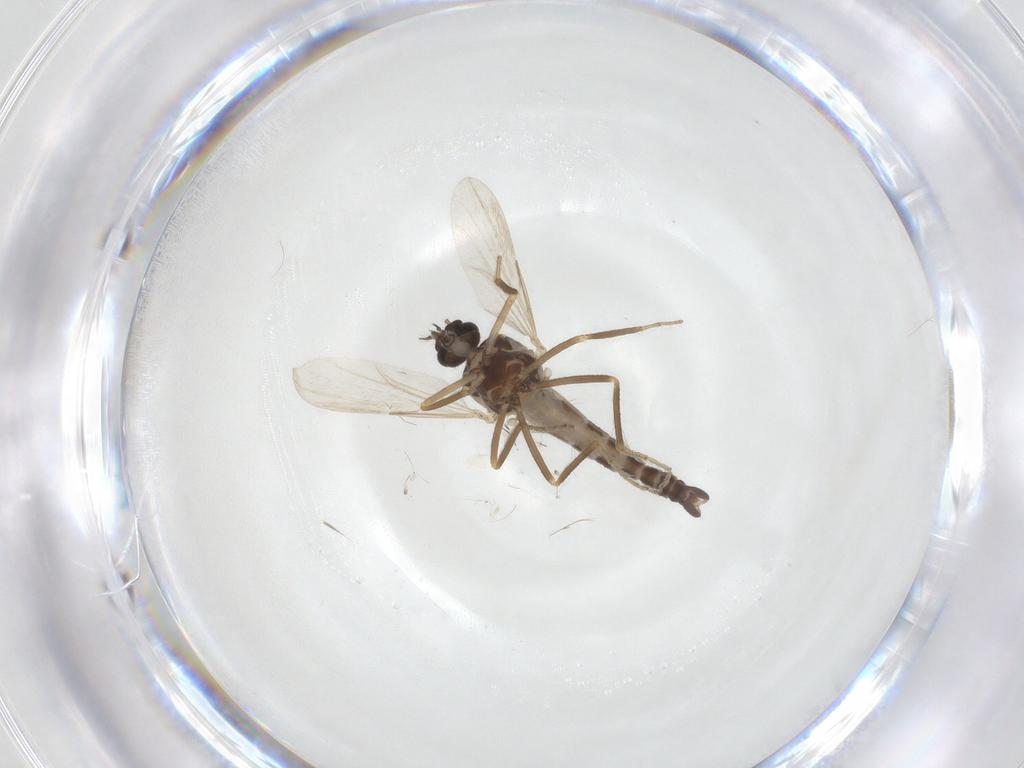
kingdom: Animalia
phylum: Arthropoda
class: Insecta
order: Diptera
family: Ceratopogonidae
